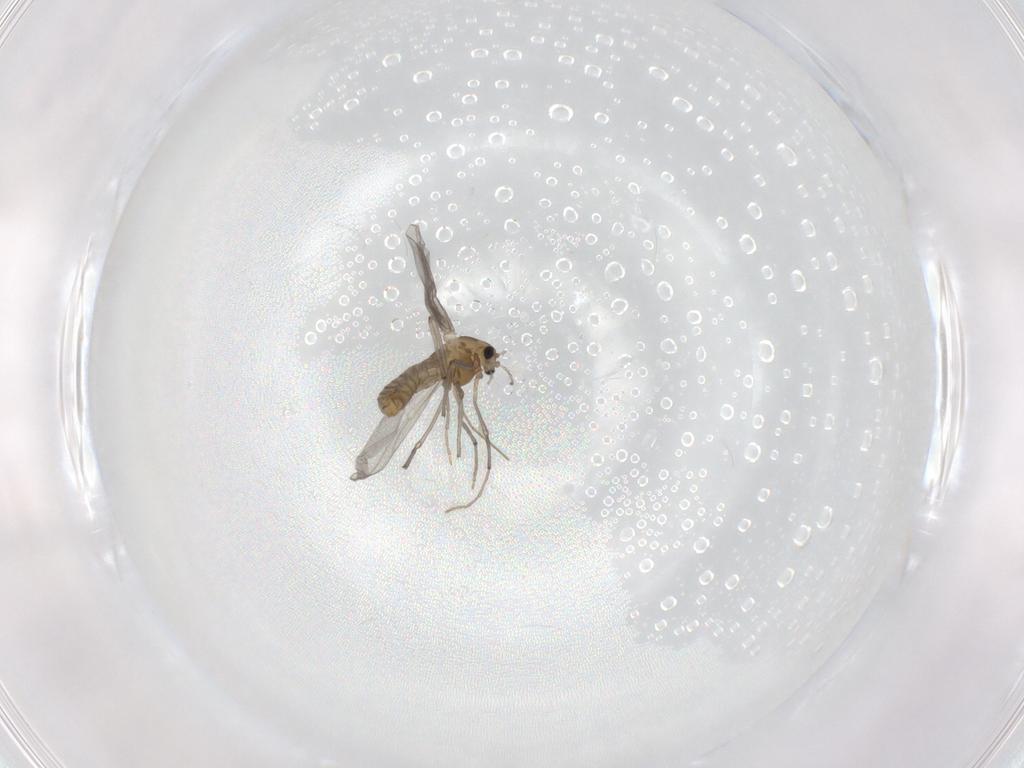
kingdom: Animalia
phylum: Arthropoda
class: Insecta
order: Diptera
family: Chironomidae
